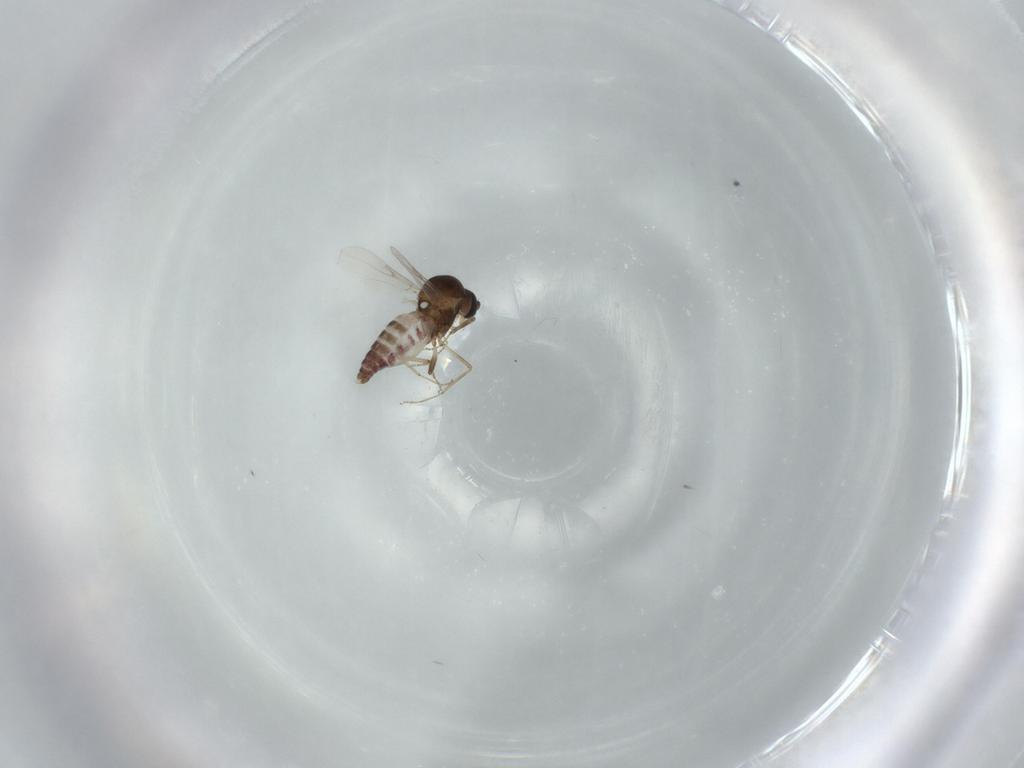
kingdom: Animalia
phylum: Arthropoda
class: Insecta
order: Diptera
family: Ceratopogonidae
